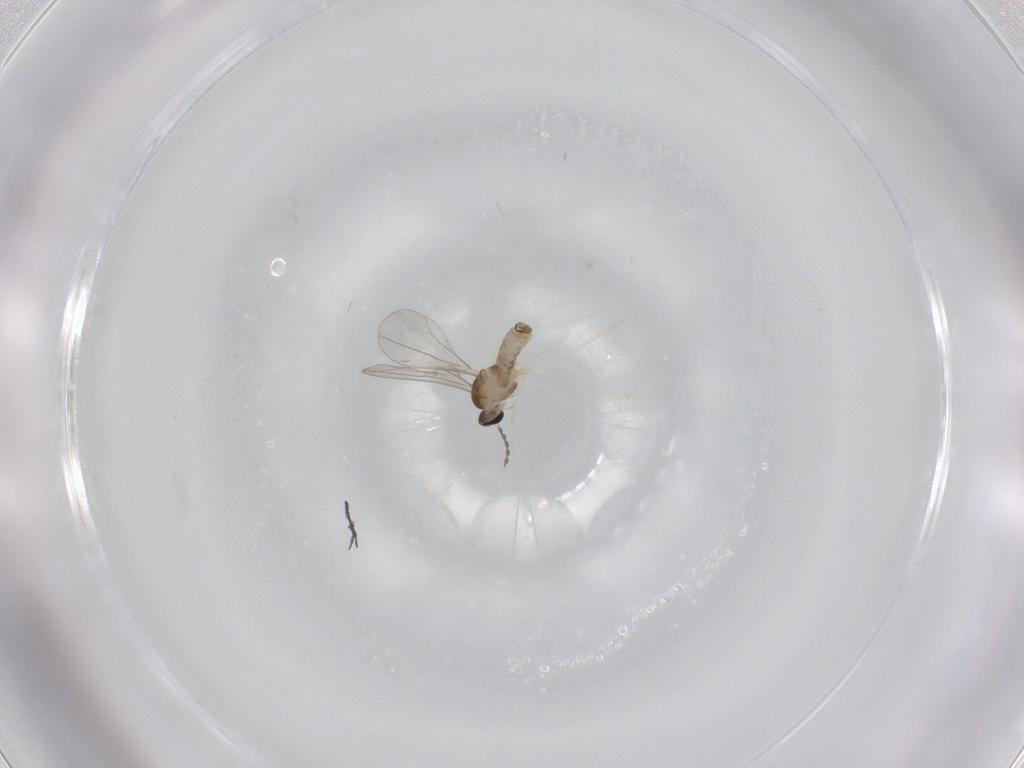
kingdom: Animalia
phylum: Arthropoda
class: Insecta
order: Diptera
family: Cecidomyiidae
